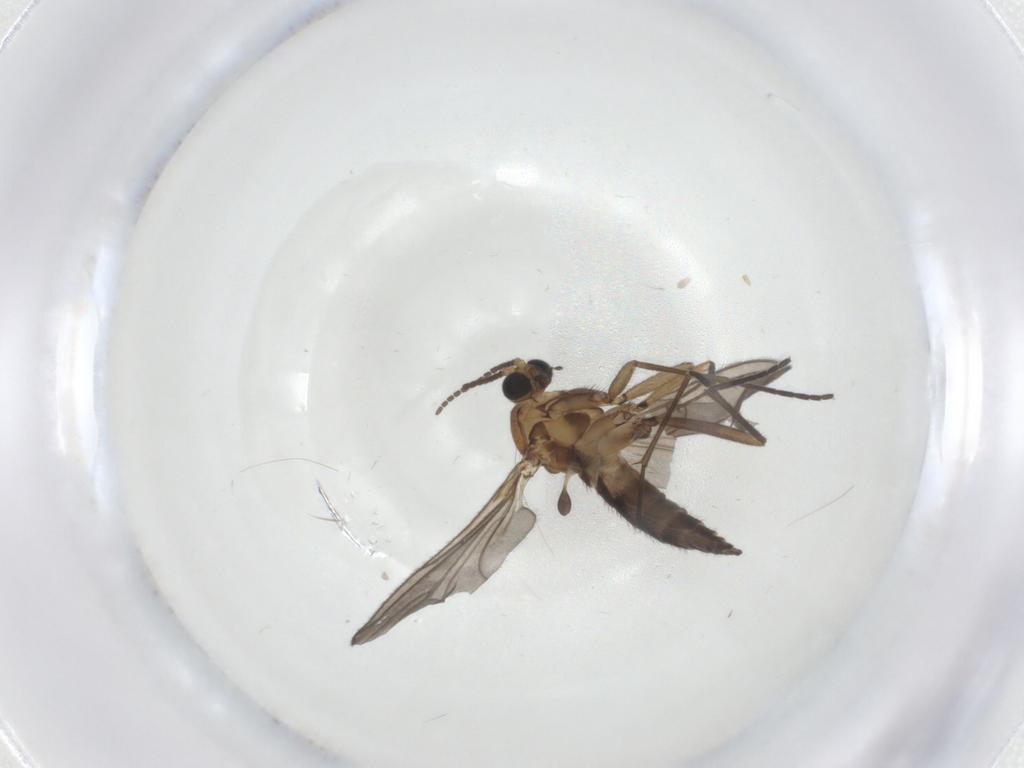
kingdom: Animalia
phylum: Arthropoda
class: Insecta
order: Diptera
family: Sciaridae
